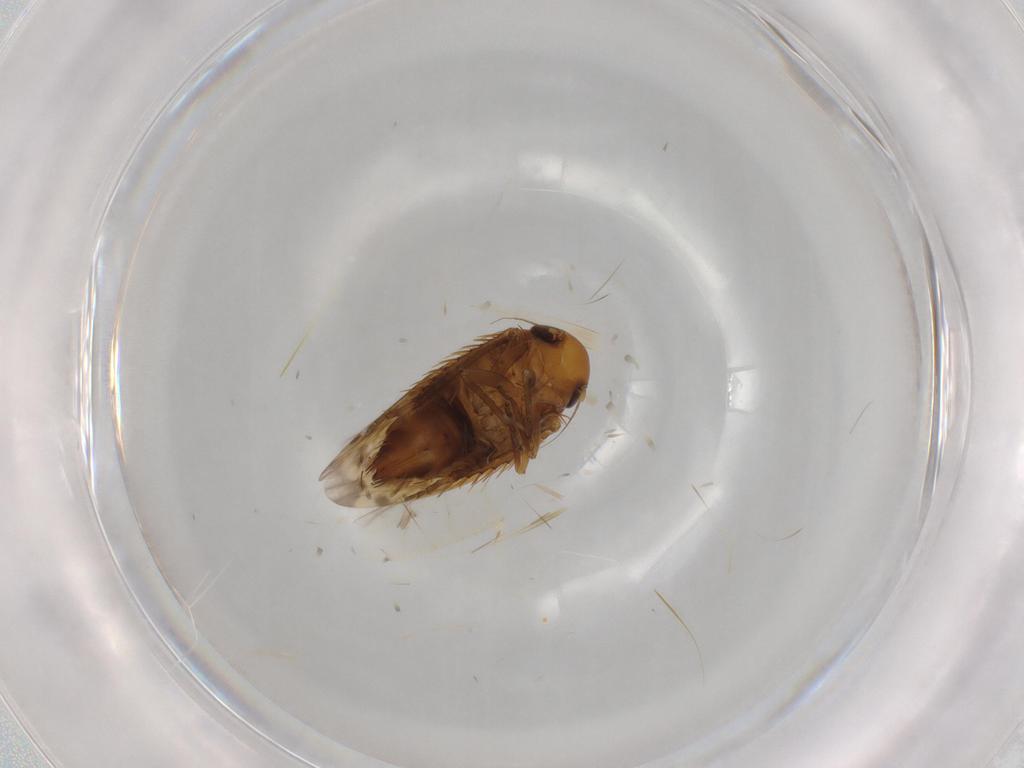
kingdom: Animalia
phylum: Arthropoda
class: Insecta
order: Hemiptera
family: Cicadellidae
